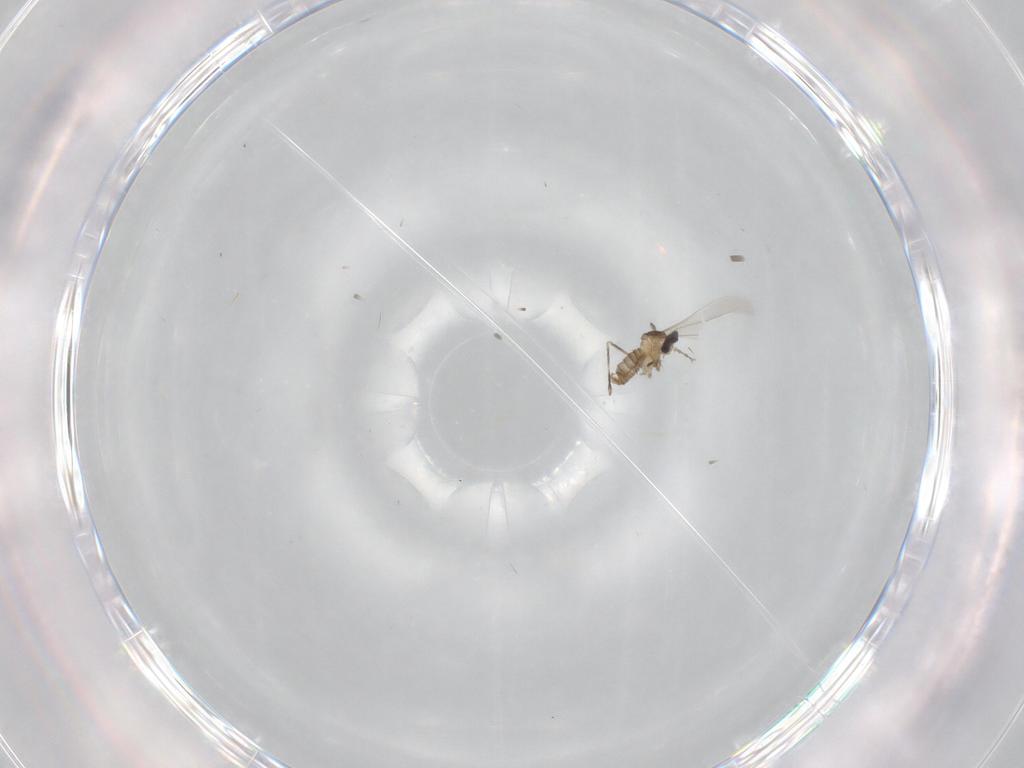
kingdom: Animalia
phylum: Arthropoda
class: Insecta
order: Diptera
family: Cecidomyiidae
